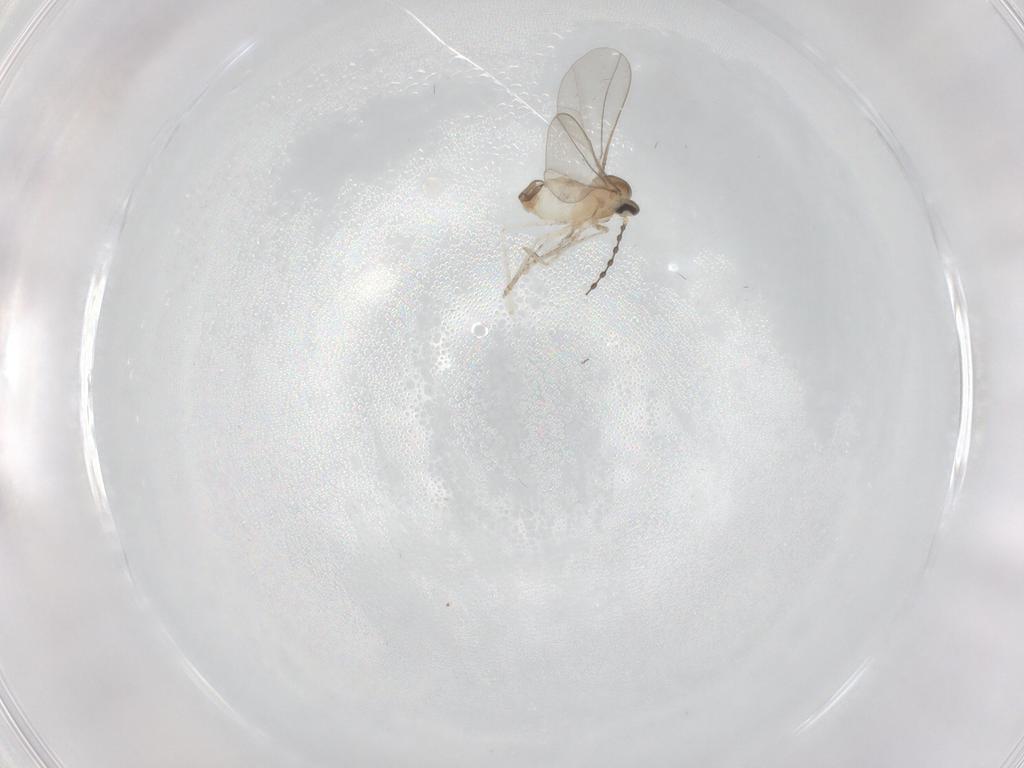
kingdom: Animalia
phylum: Arthropoda
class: Insecta
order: Diptera
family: Sciaridae
